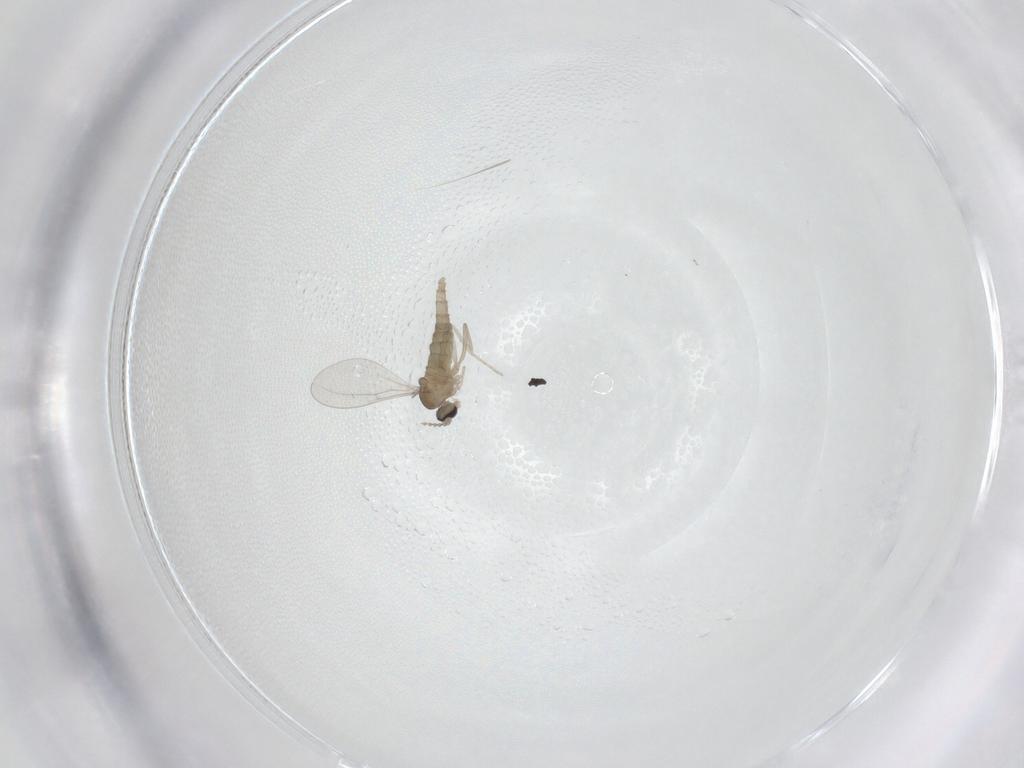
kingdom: Animalia
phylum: Arthropoda
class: Insecta
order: Diptera
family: Cecidomyiidae
